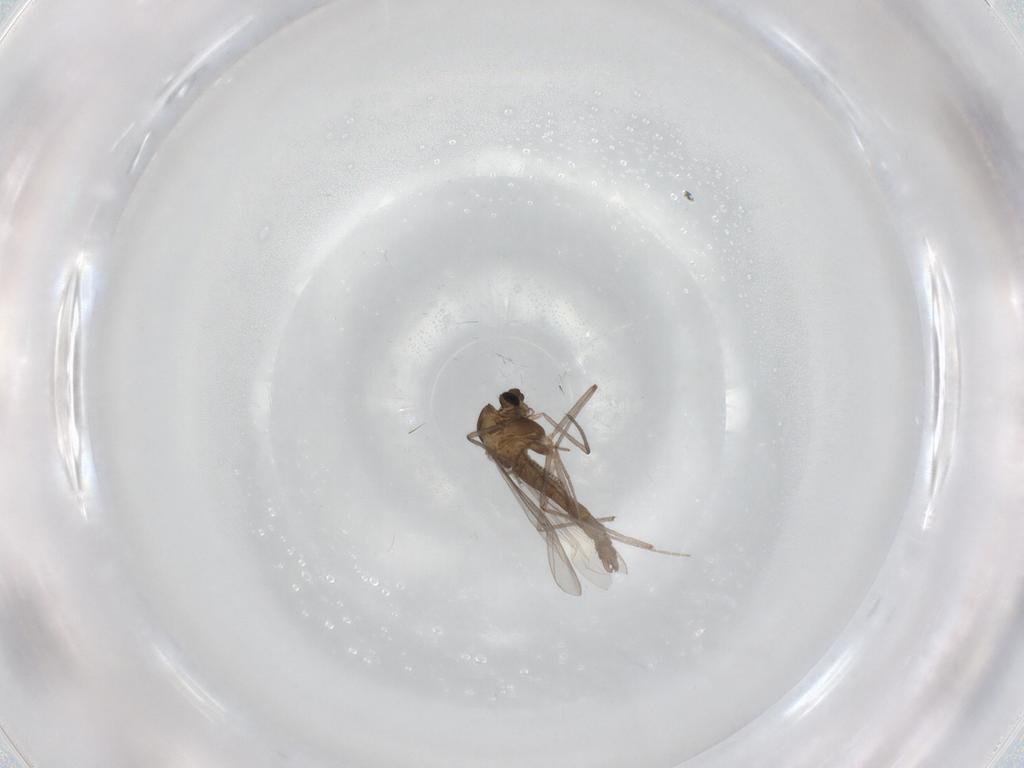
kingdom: Animalia
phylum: Arthropoda
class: Insecta
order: Diptera
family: Chironomidae
